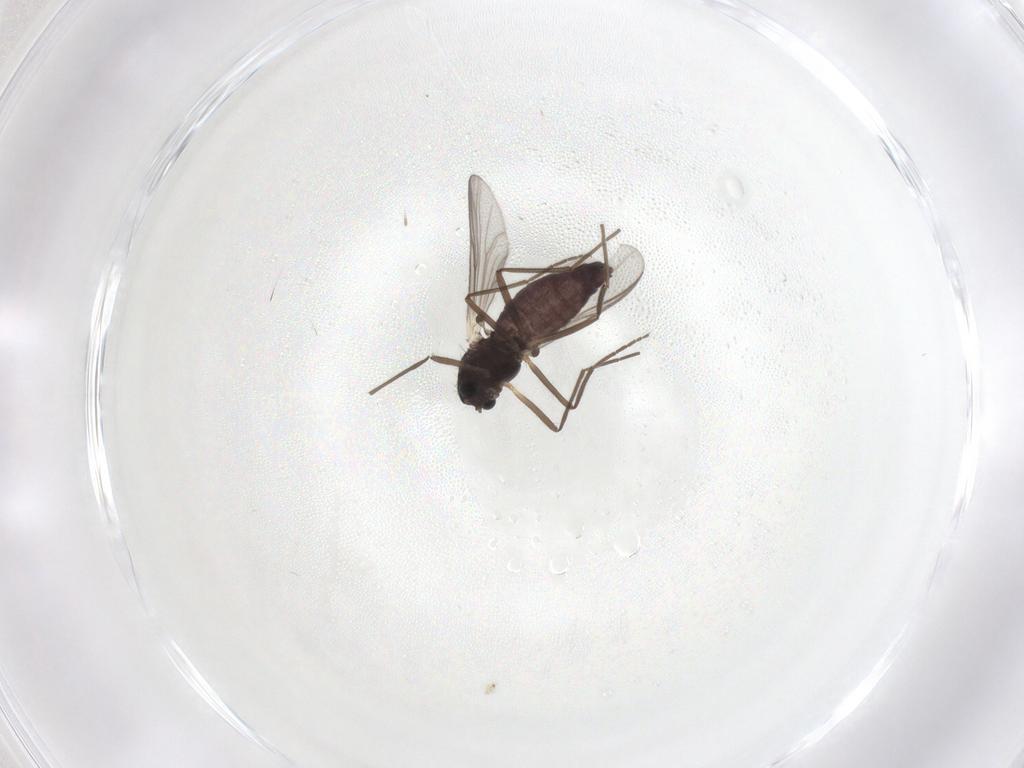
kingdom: Animalia
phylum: Arthropoda
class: Insecta
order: Diptera
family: Chironomidae
